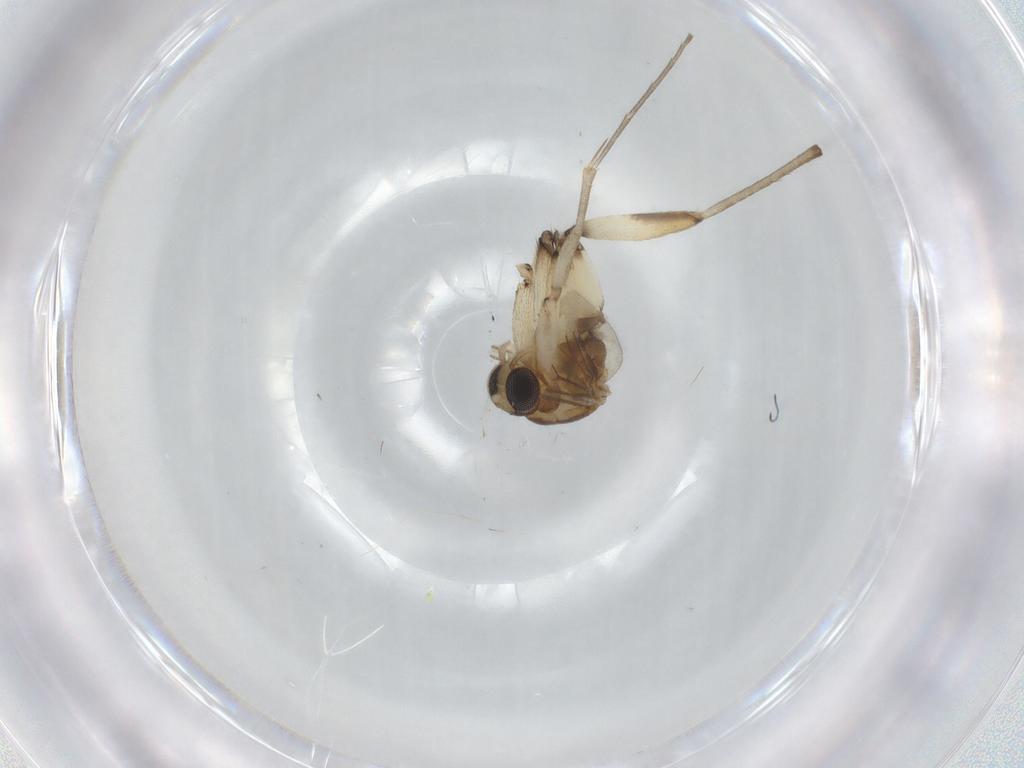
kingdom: Animalia
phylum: Arthropoda
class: Insecta
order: Diptera
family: Mycetophilidae
